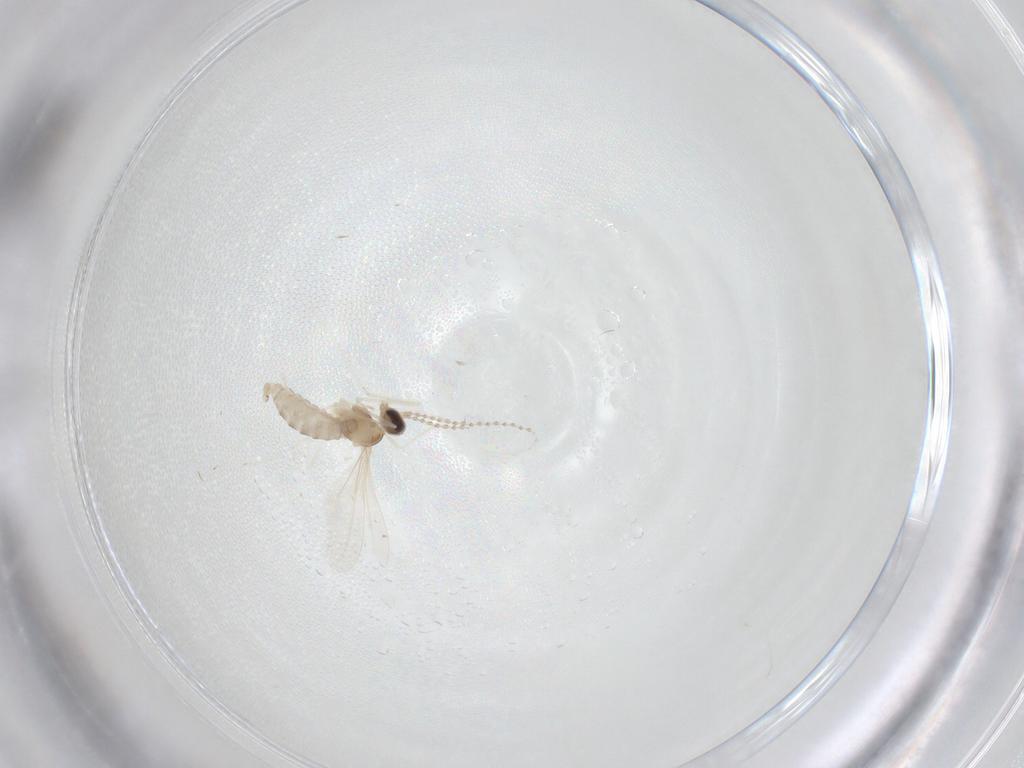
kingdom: Animalia
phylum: Arthropoda
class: Insecta
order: Diptera
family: Cecidomyiidae
